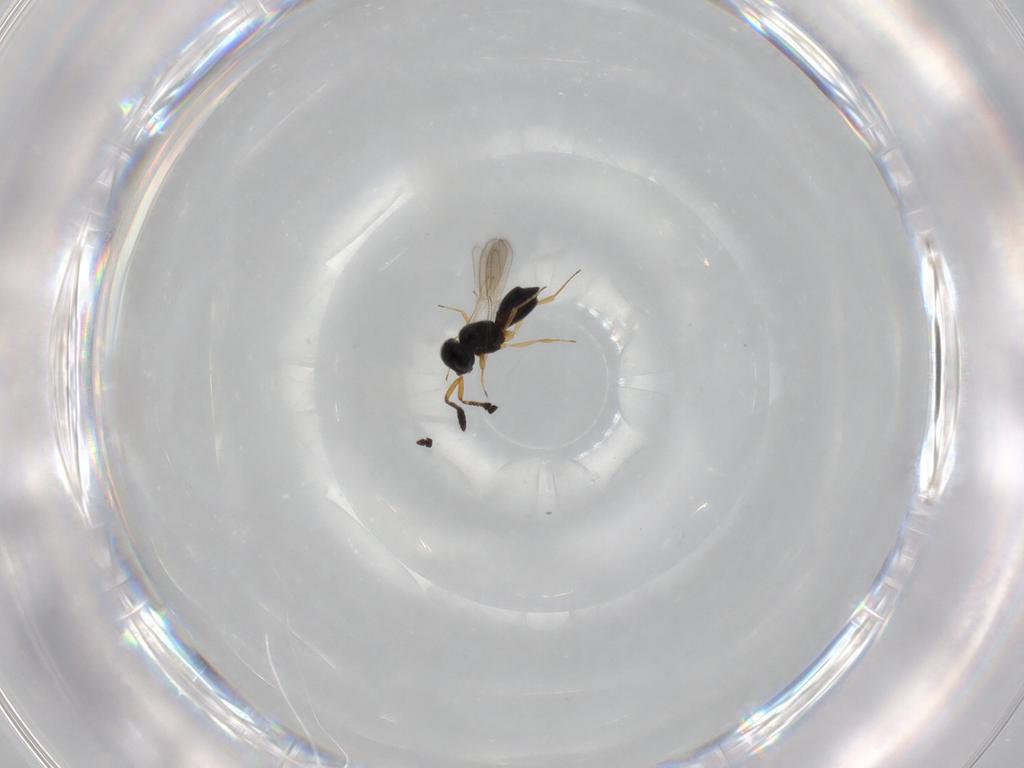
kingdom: Animalia
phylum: Arthropoda
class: Insecta
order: Hymenoptera
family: Scelionidae
